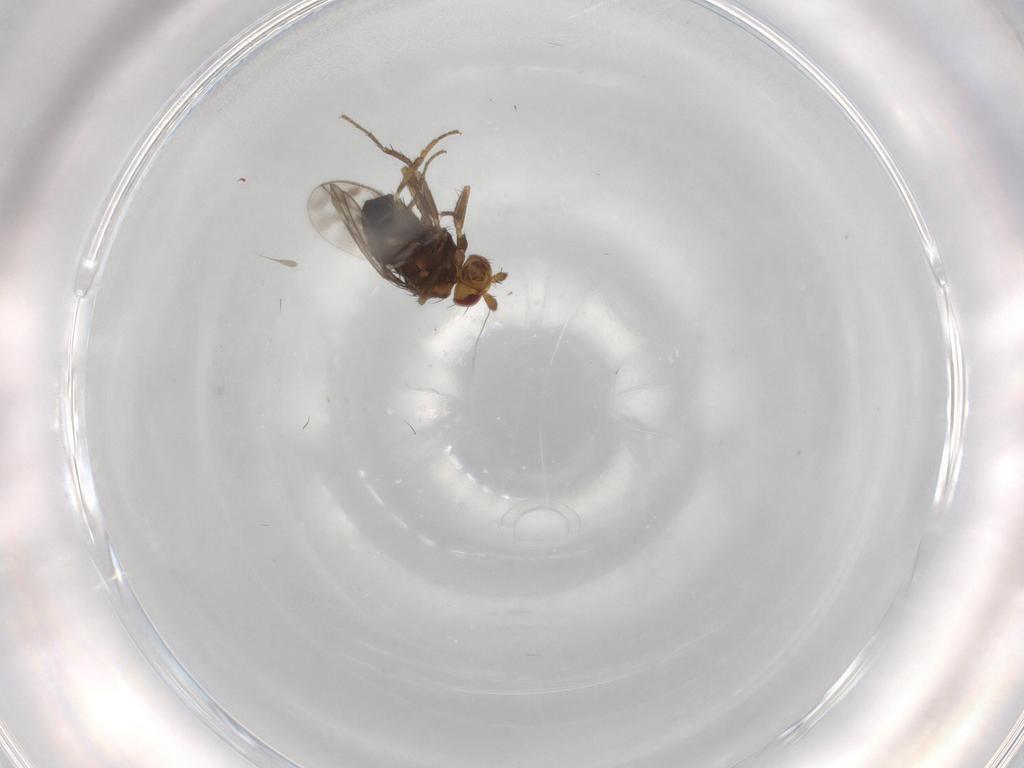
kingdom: Animalia
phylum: Arthropoda
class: Insecta
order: Diptera
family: Sphaeroceridae
